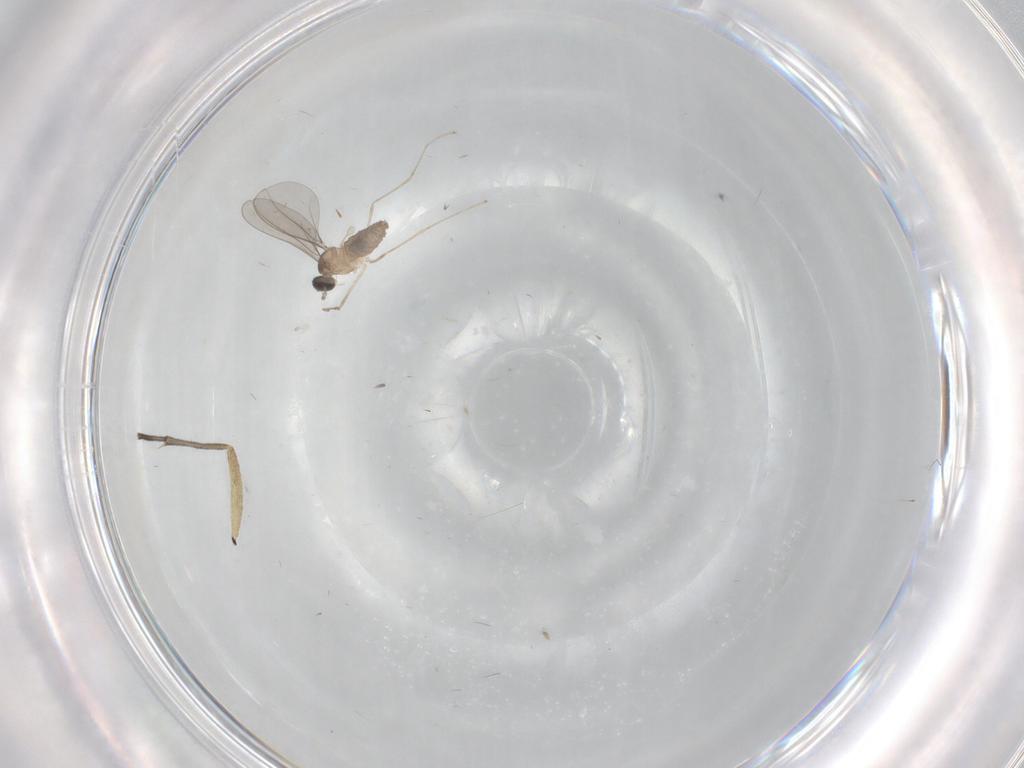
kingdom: Animalia
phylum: Arthropoda
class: Insecta
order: Diptera
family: Cecidomyiidae
